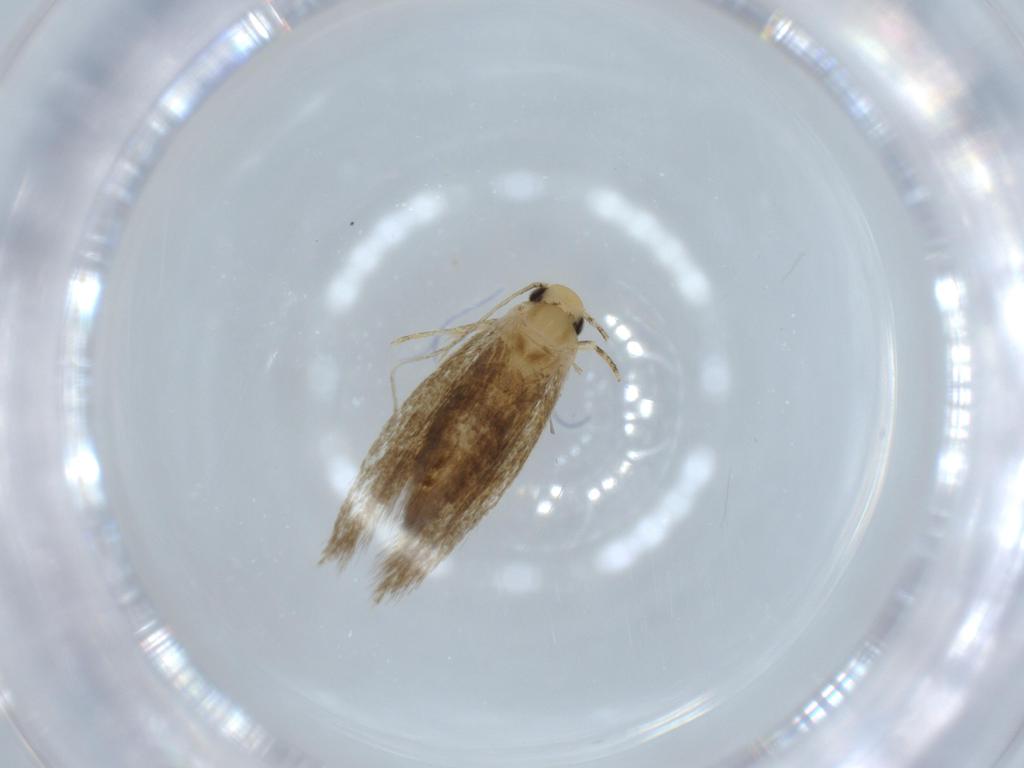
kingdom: Animalia
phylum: Arthropoda
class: Insecta
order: Lepidoptera
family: Tineidae
